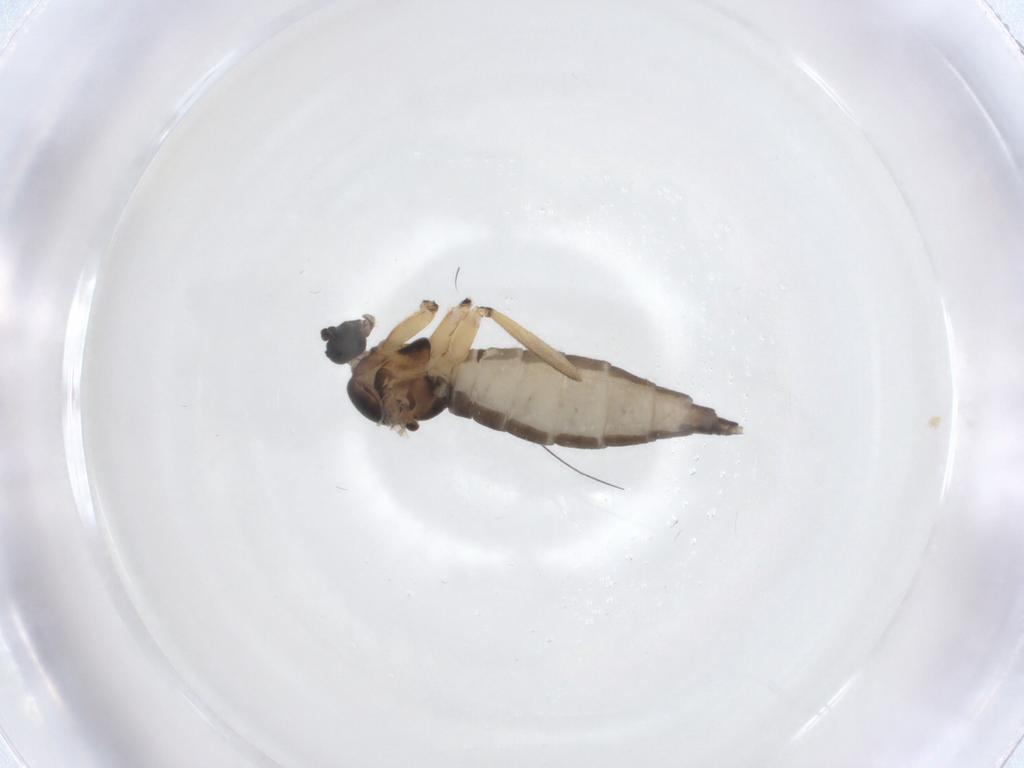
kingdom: Animalia
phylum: Arthropoda
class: Insecta
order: Diptera
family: Sciaridae
